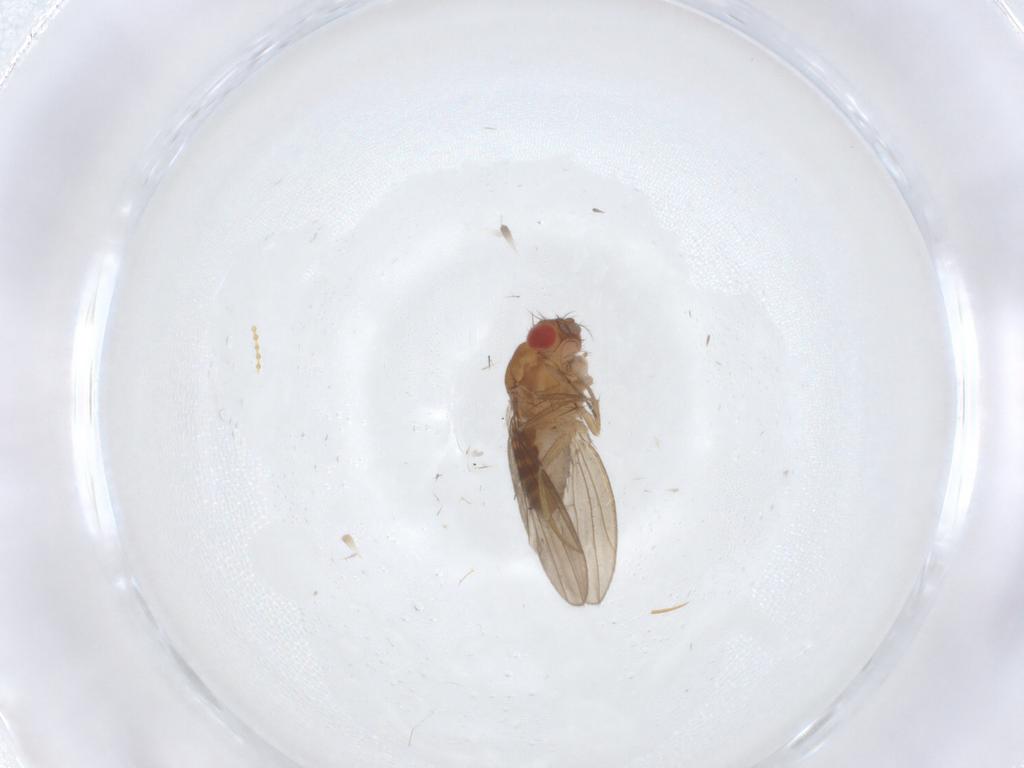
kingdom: Animalia
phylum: Arthropoda
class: Insecta
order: Diptera
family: Drosophilidae
